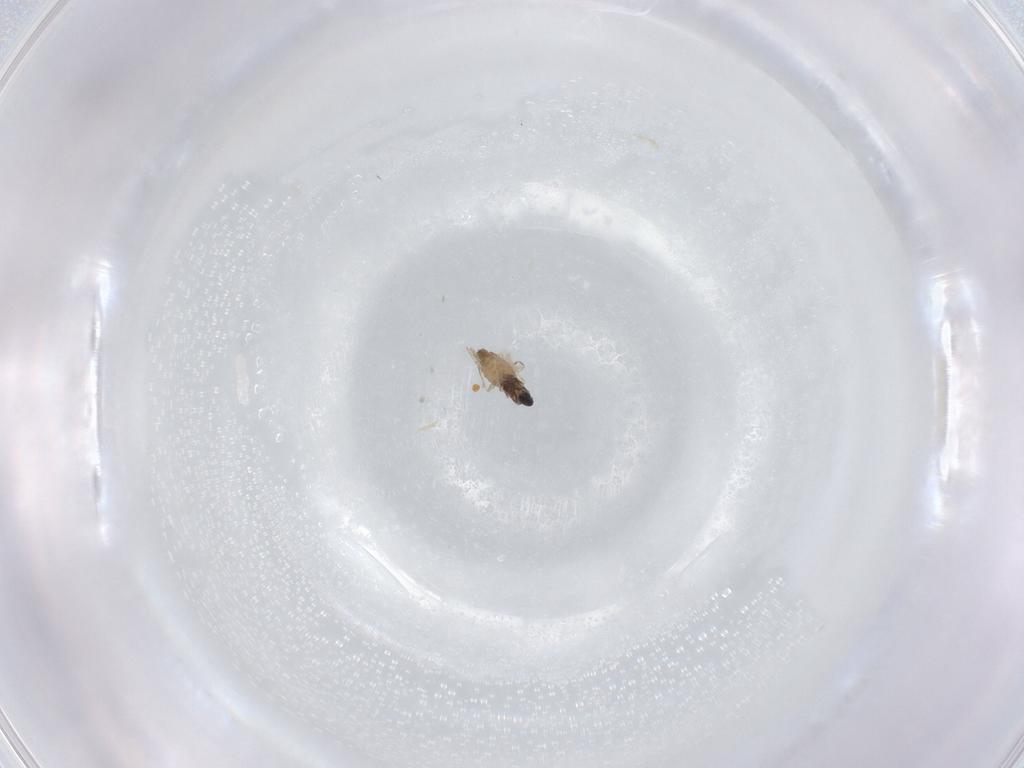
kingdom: Animalia
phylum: Arthropoda
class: Insecta
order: Diptera
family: Cecidomyiidae
